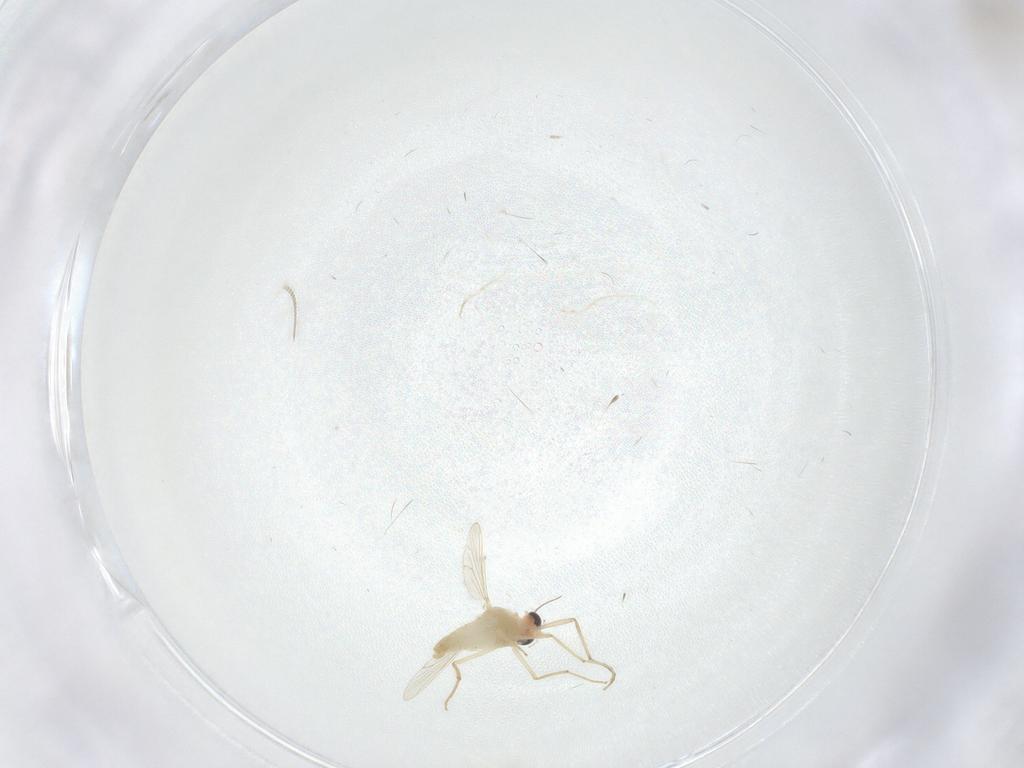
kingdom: Animalia
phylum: Arthropoda
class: Insecta
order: Diptera
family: Chironomidae
